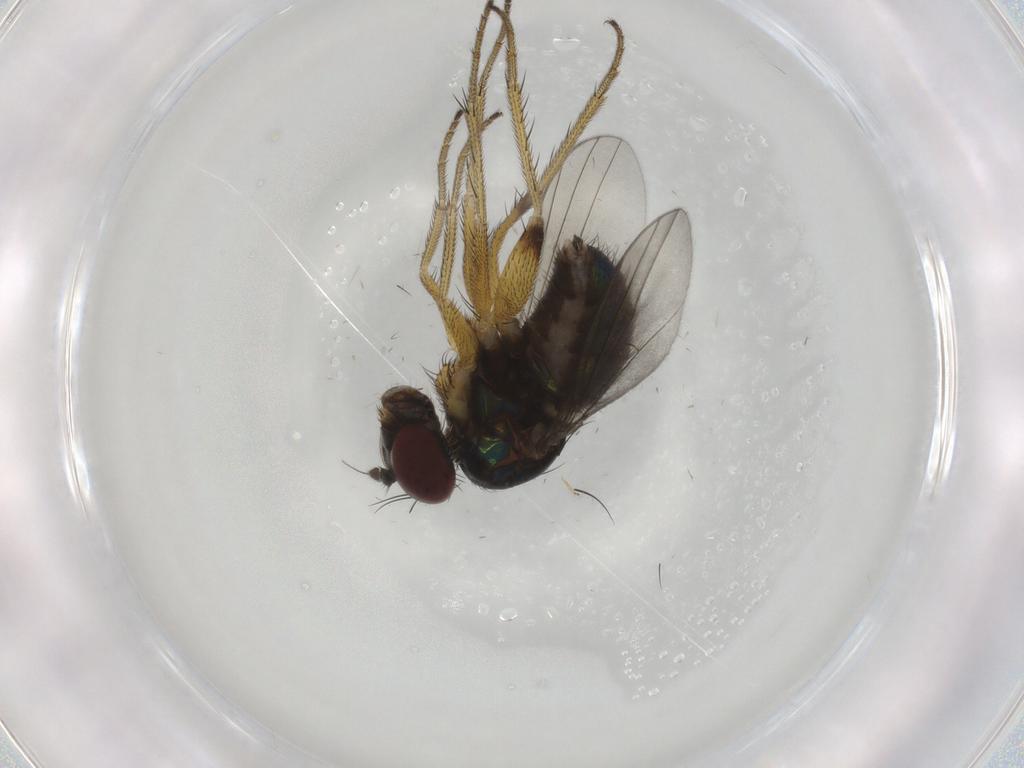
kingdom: Animalia
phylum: Arthropoda
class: Insecta
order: Diptera
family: Dolichopodidae
